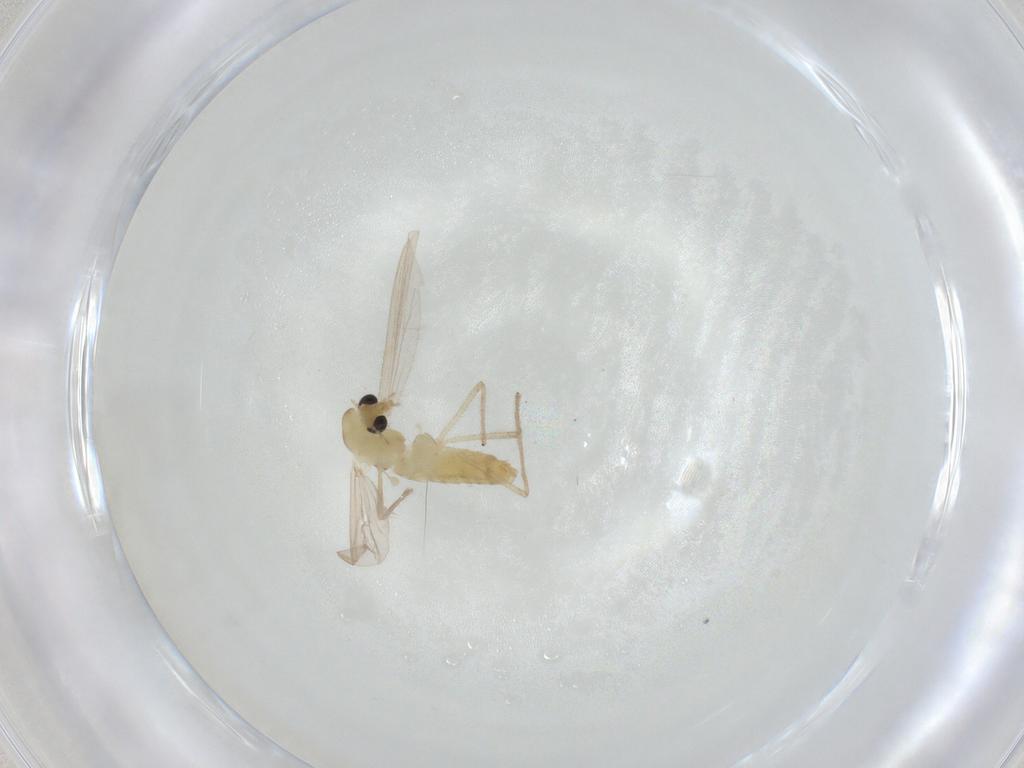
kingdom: Animalia
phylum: Arthropoda
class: Insecta
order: Diptera
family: Chironomidae
